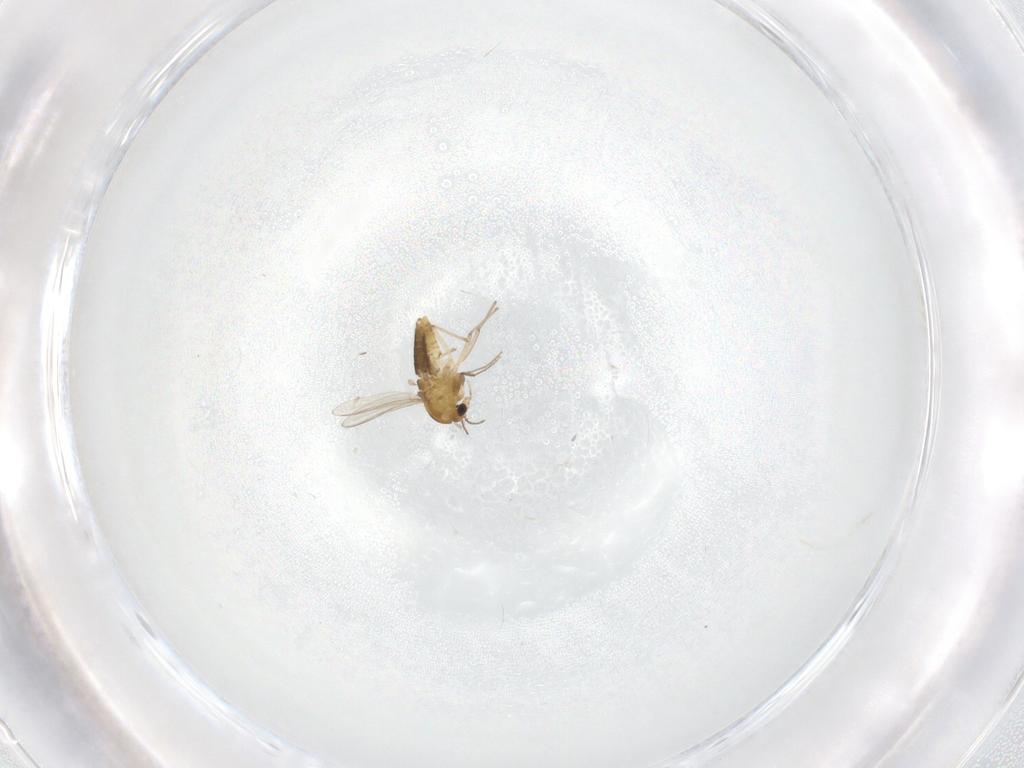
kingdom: Animalia
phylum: Arthropoda
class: Insecta
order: Diptera
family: Chironomidae
